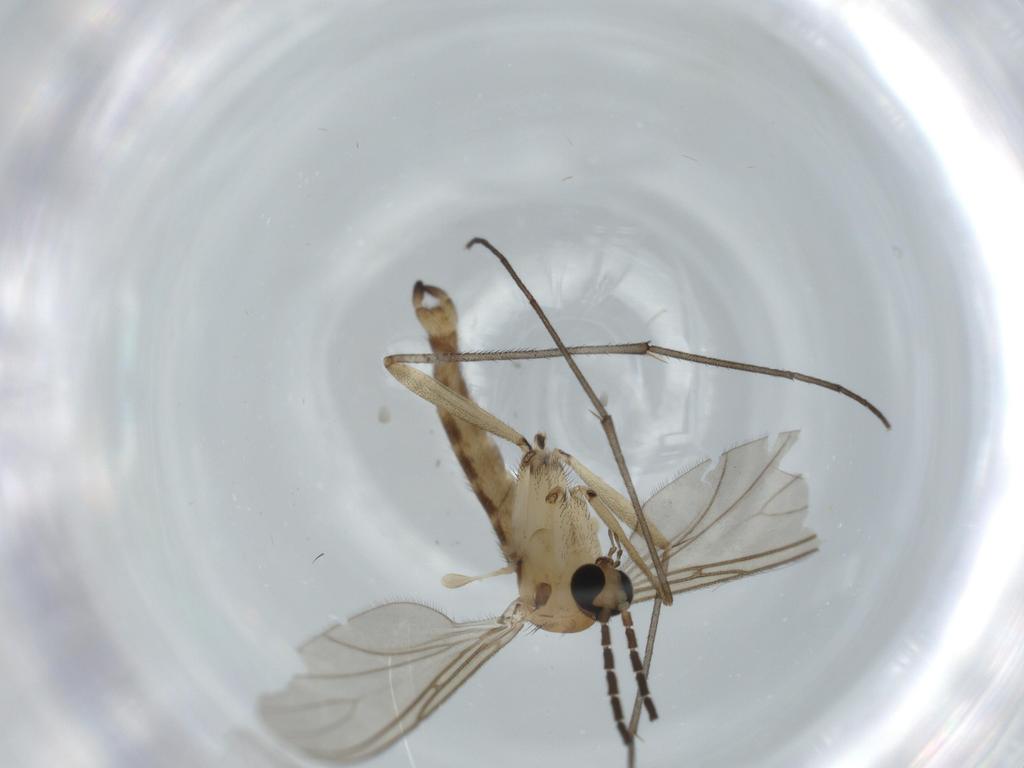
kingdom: Animalia
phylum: Arthropoda
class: Insecta
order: Diptera
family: Sciaridae
